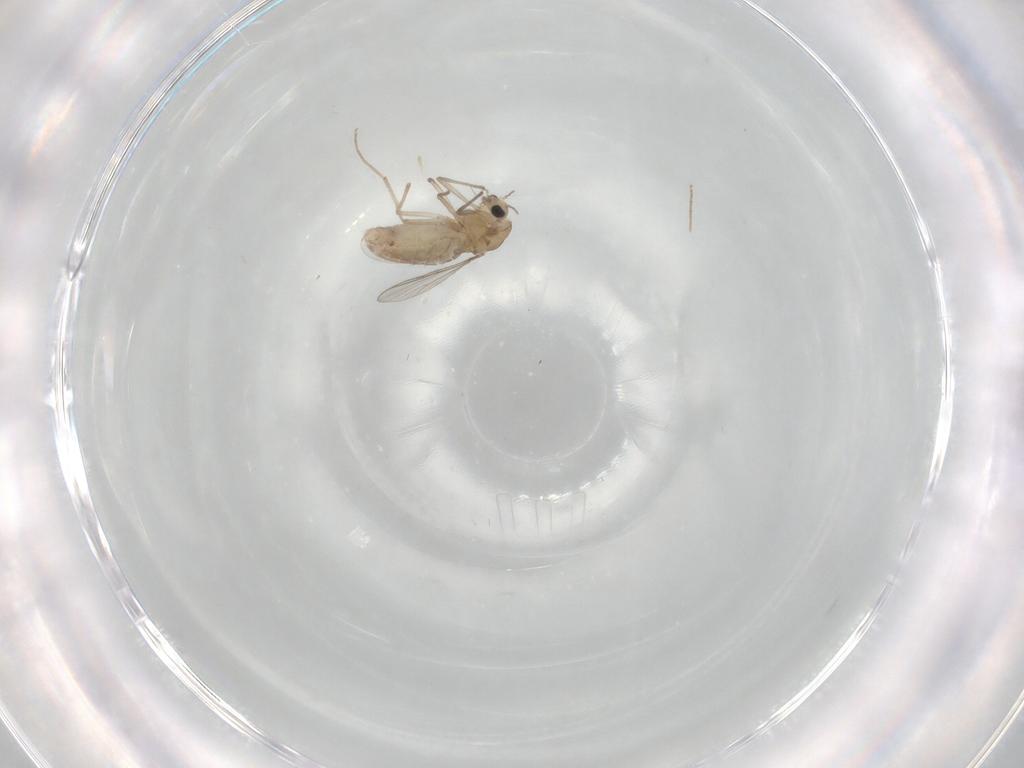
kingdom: Animalia
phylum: Arthropoda
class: Insecta
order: Diptera
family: Chironomidae
